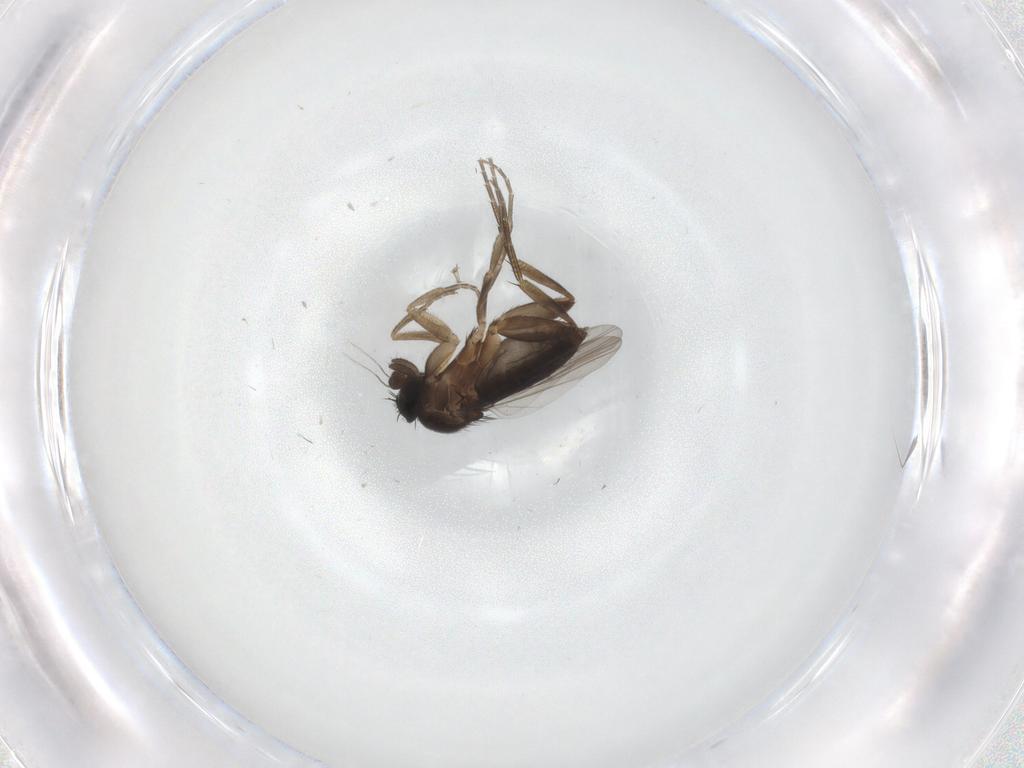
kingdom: Animalia
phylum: Arthropoda
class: Insecta
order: Diptera
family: Phoridae
